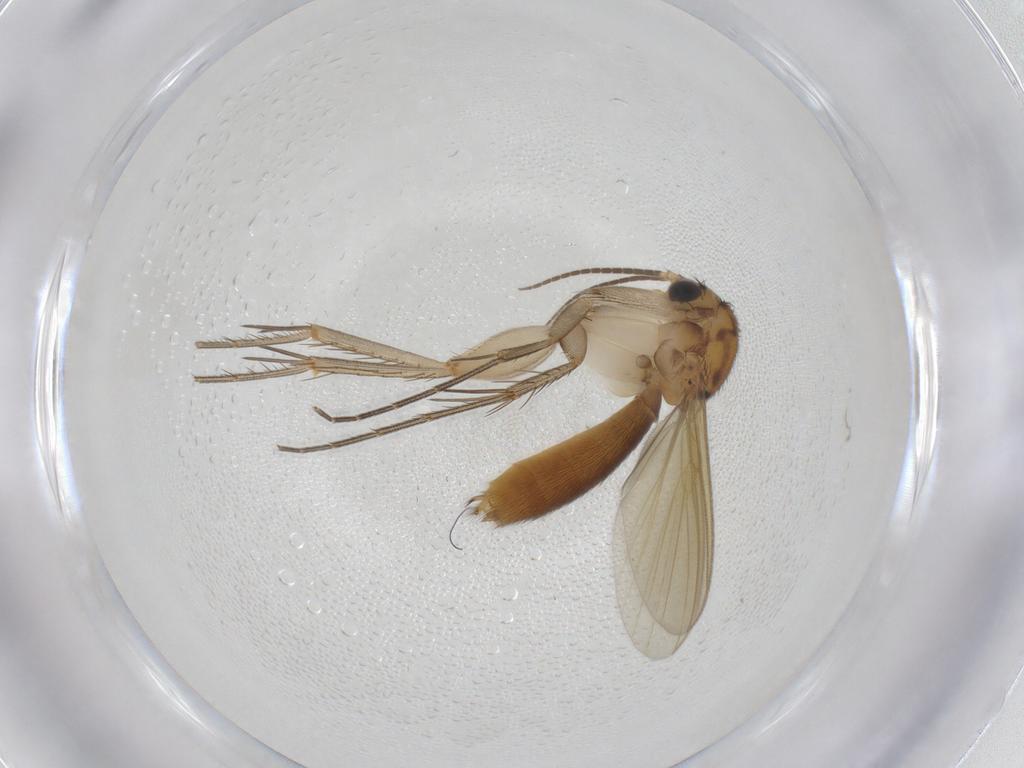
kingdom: Animalia
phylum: Arthropoda
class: Insecta
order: Diptera
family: Mycetophilidae
